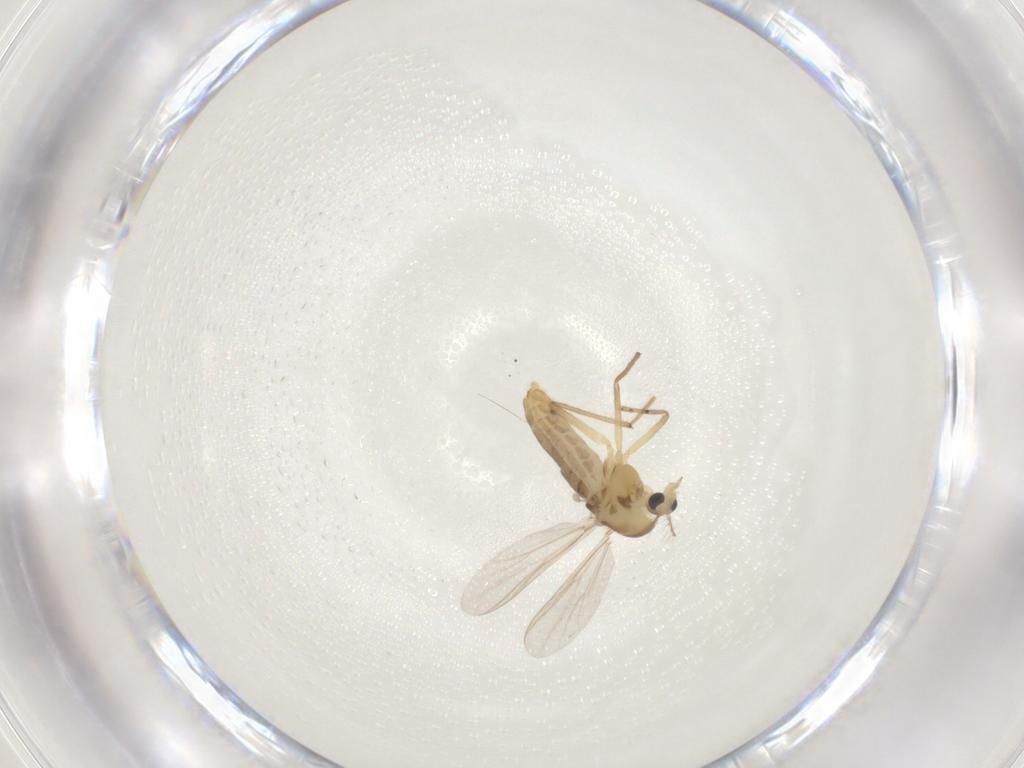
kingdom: Animalia
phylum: Arthropoda
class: Insecta
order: Diptera
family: Chironomidae
